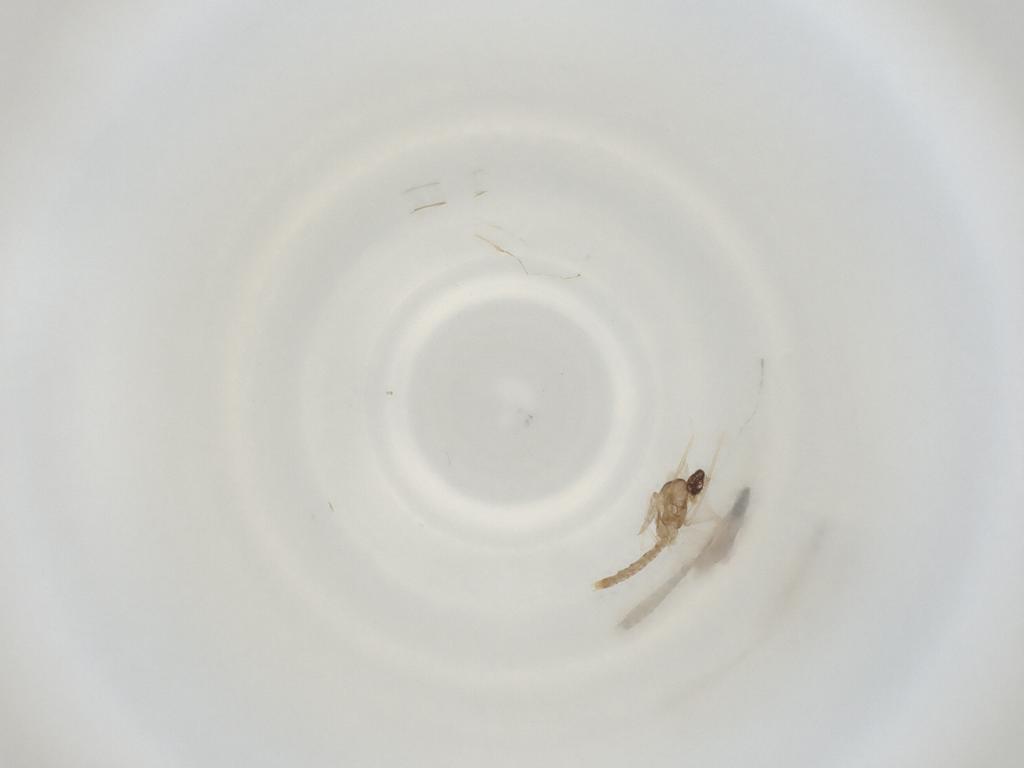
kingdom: Animalia
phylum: Arthropoda
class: Insecta
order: Diptera
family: Cecidomyiidae
